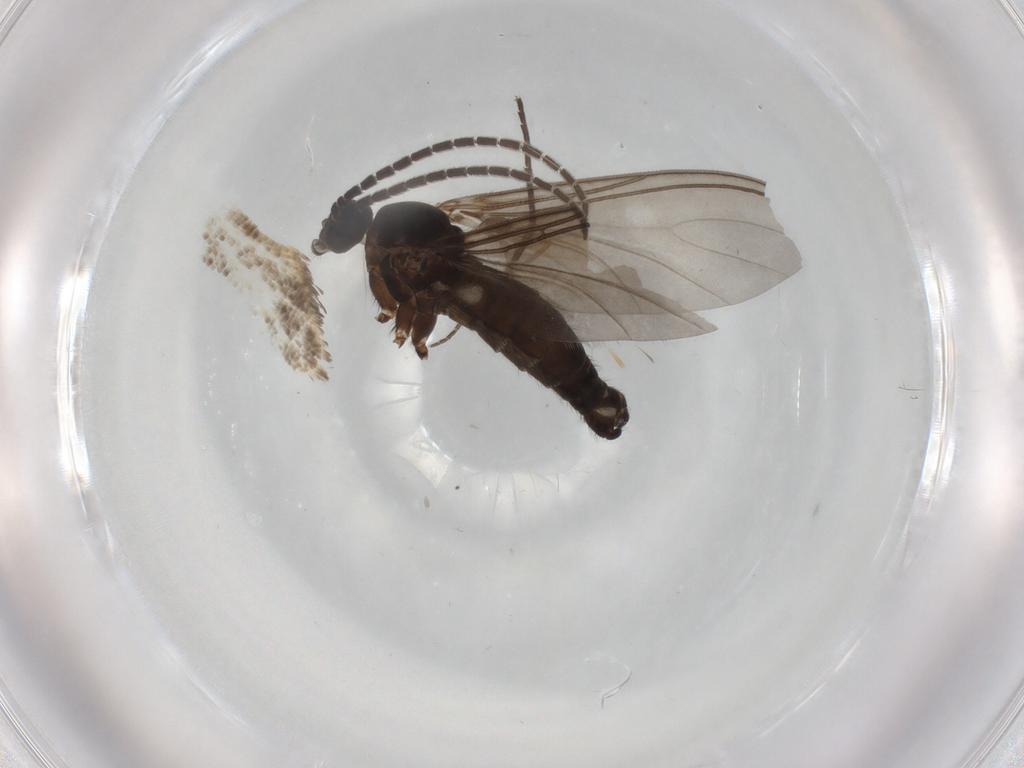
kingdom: Animalia
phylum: Arthropoda
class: Insecta
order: Diptera
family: Sciaridae
